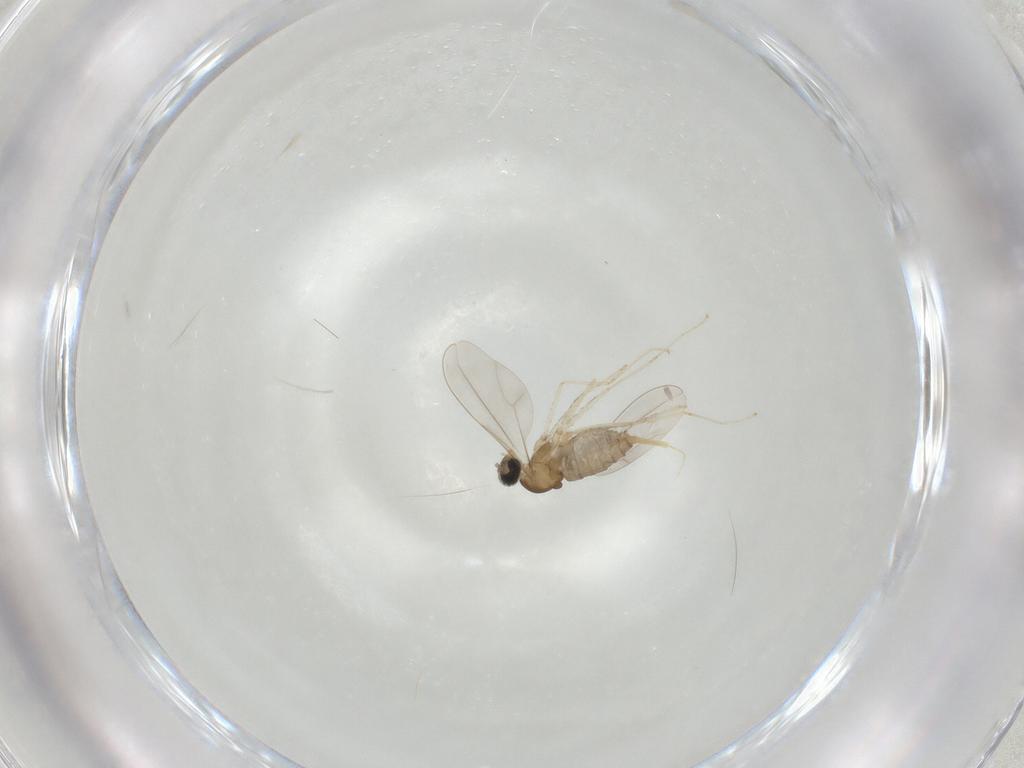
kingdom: Animalia
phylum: Arthropoda
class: Insecta
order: Diptera
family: Cecidomyiidae
